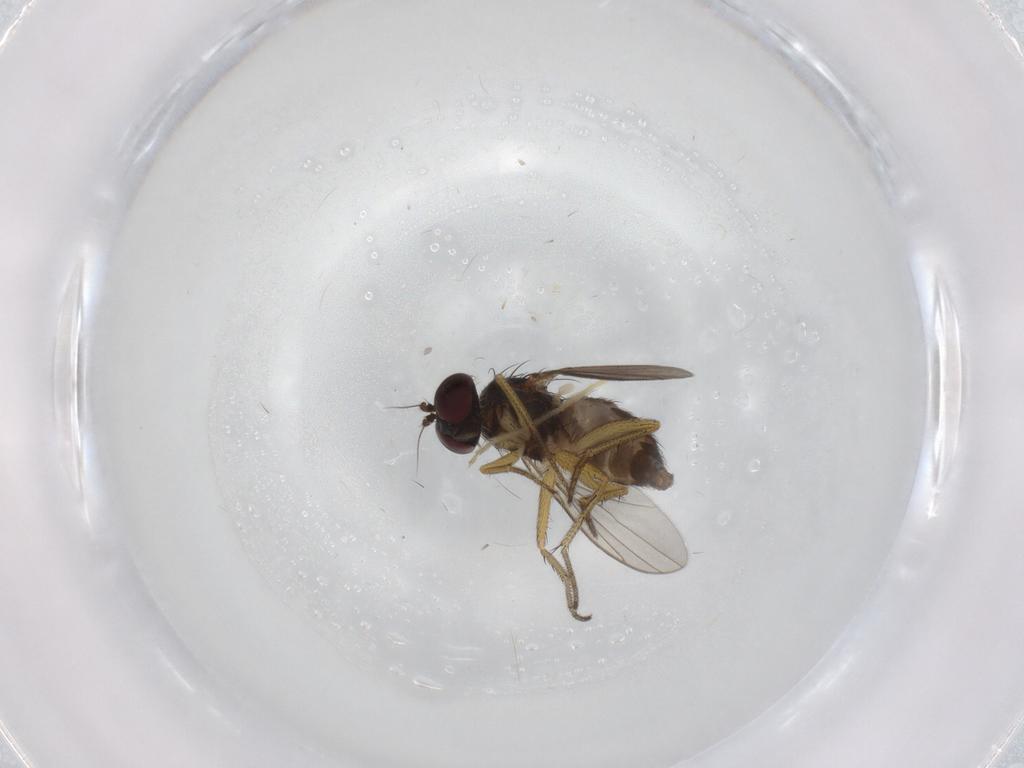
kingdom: Animalia
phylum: Arthropoda
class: Insecta
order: Diptera
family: Dolichopodidae
